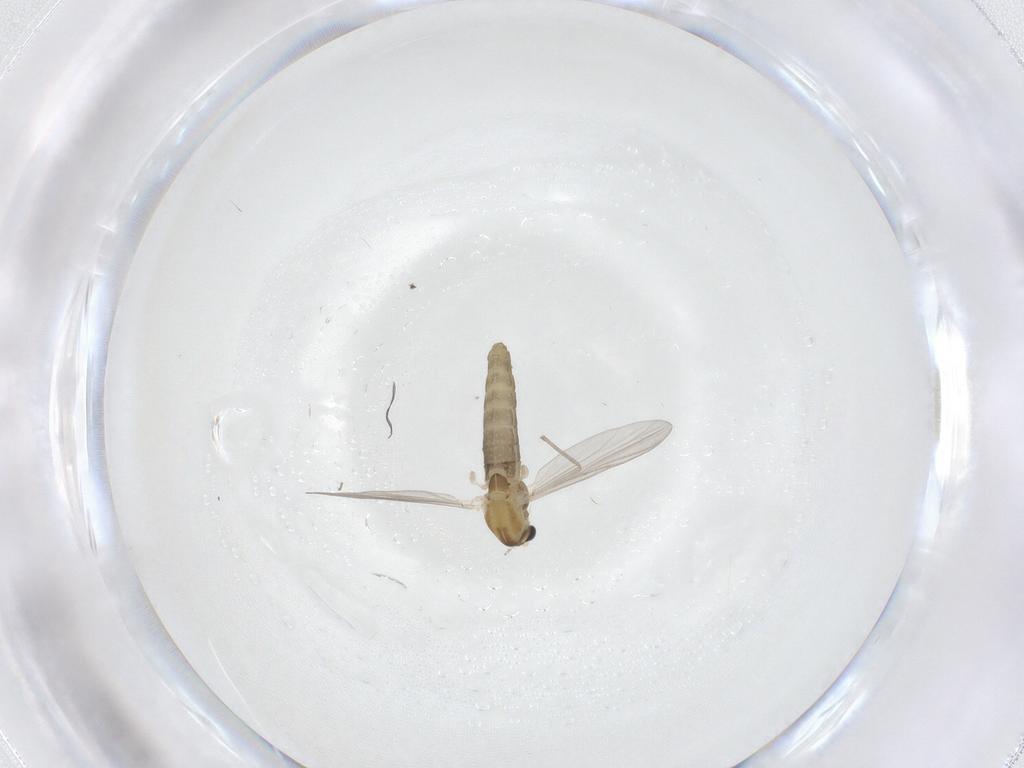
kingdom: Animalia
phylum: Arthropoda
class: Insecta
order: Diptera
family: Chironomidae
